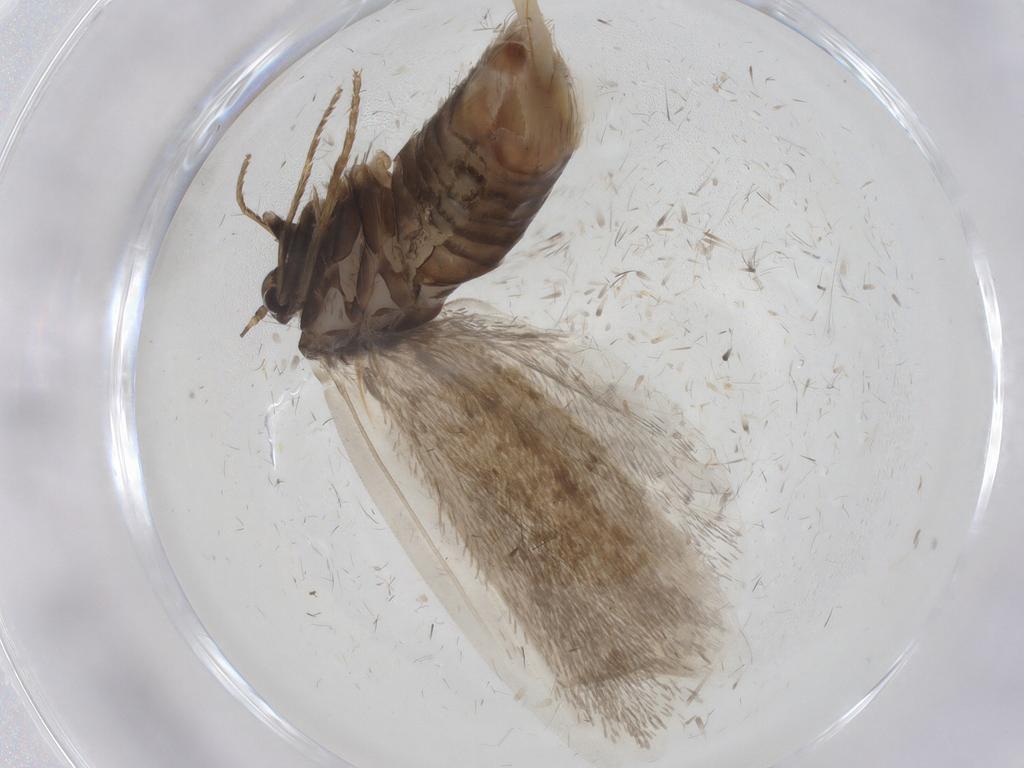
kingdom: Animalia
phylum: Arthropoda
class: Insecta
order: Lepidoptera
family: Psychidae
